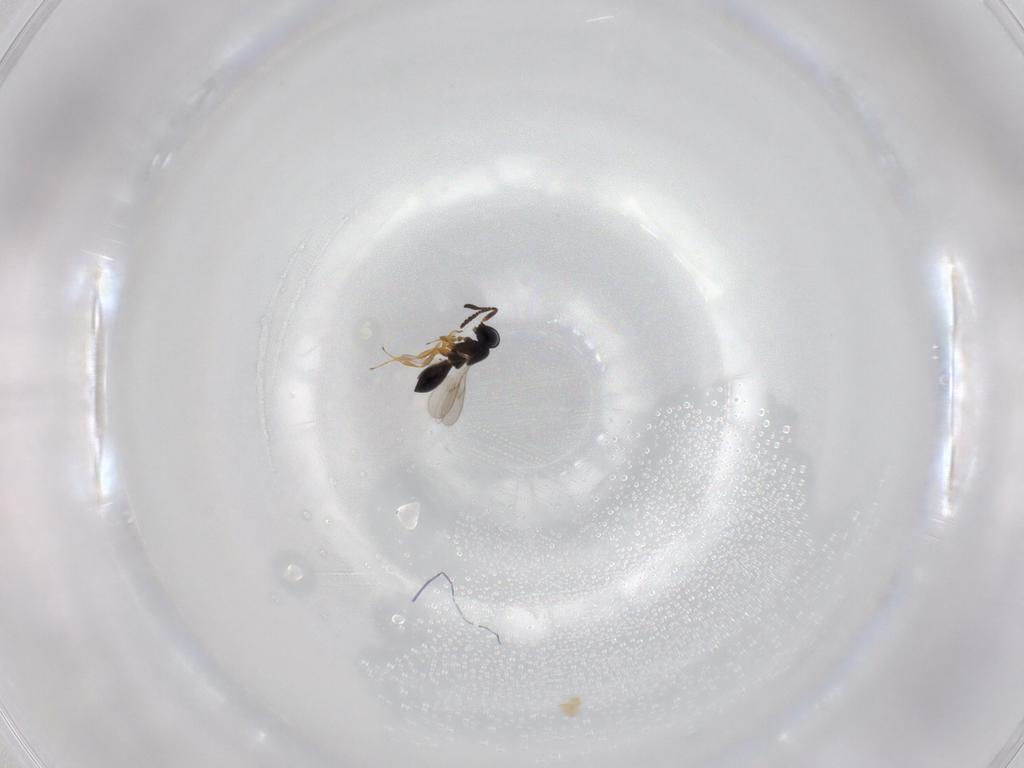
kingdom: Animalia
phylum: Arthropoda
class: Insecta
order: Hymenoptera
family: Scelionidae
